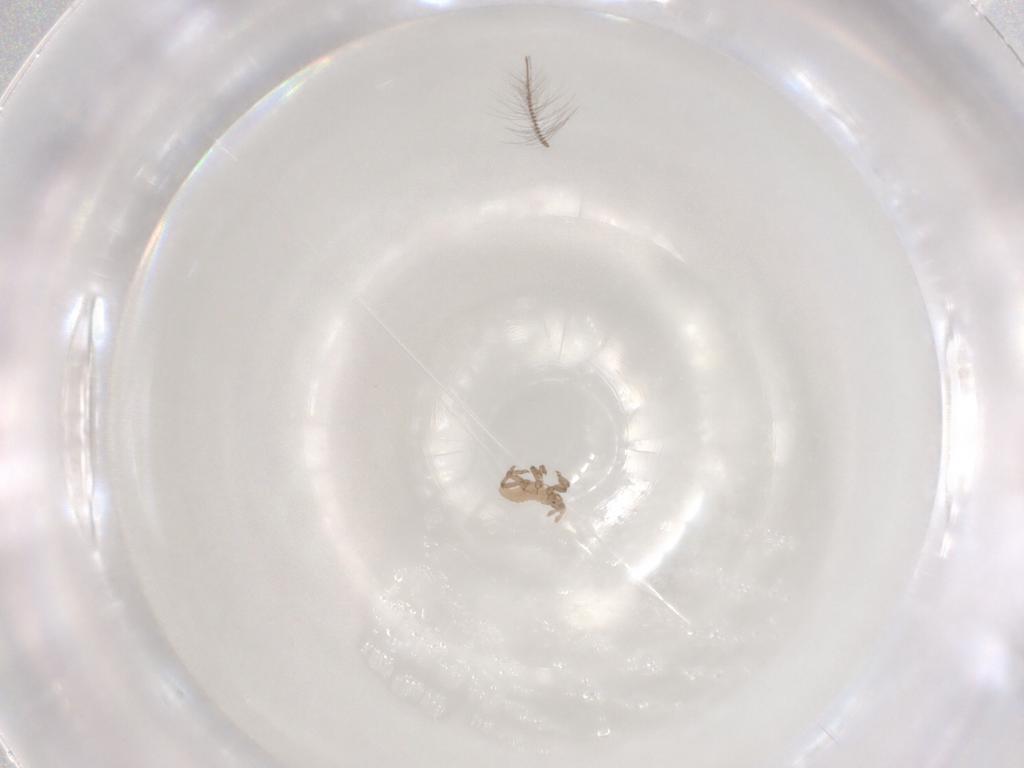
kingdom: Animalia
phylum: Arthropoda
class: Insecta
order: Hemiptera
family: Aphididae
